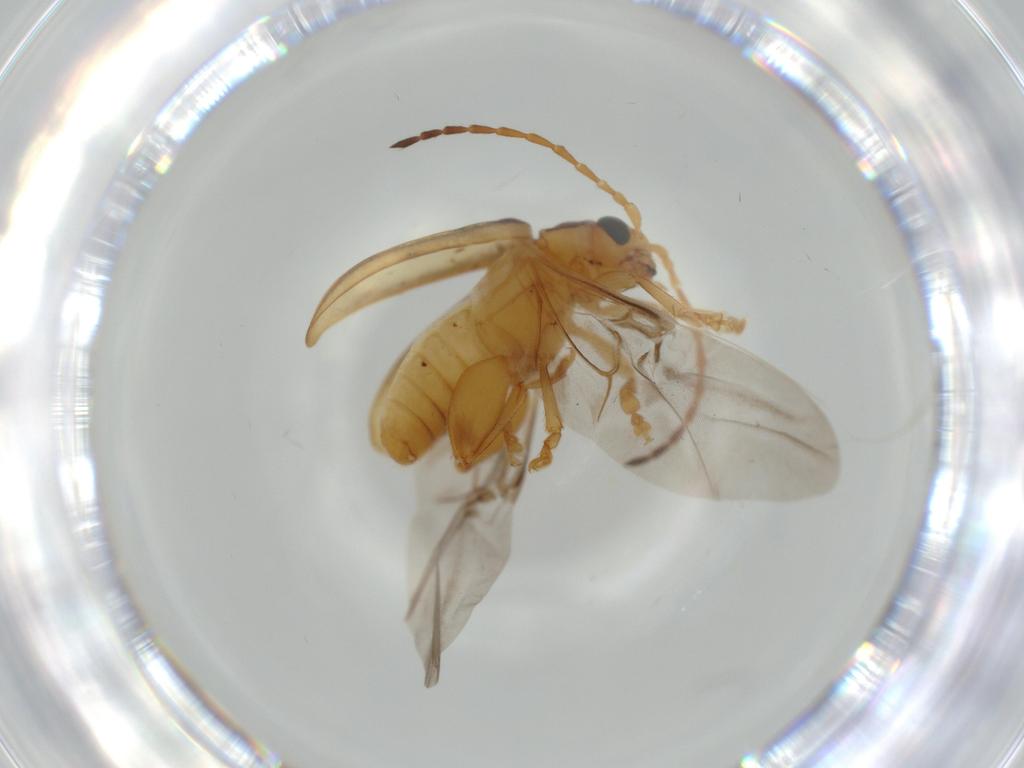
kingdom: Animalia
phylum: Arthropoda
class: Insecta
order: Coleoptera
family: Chrysomelidae
